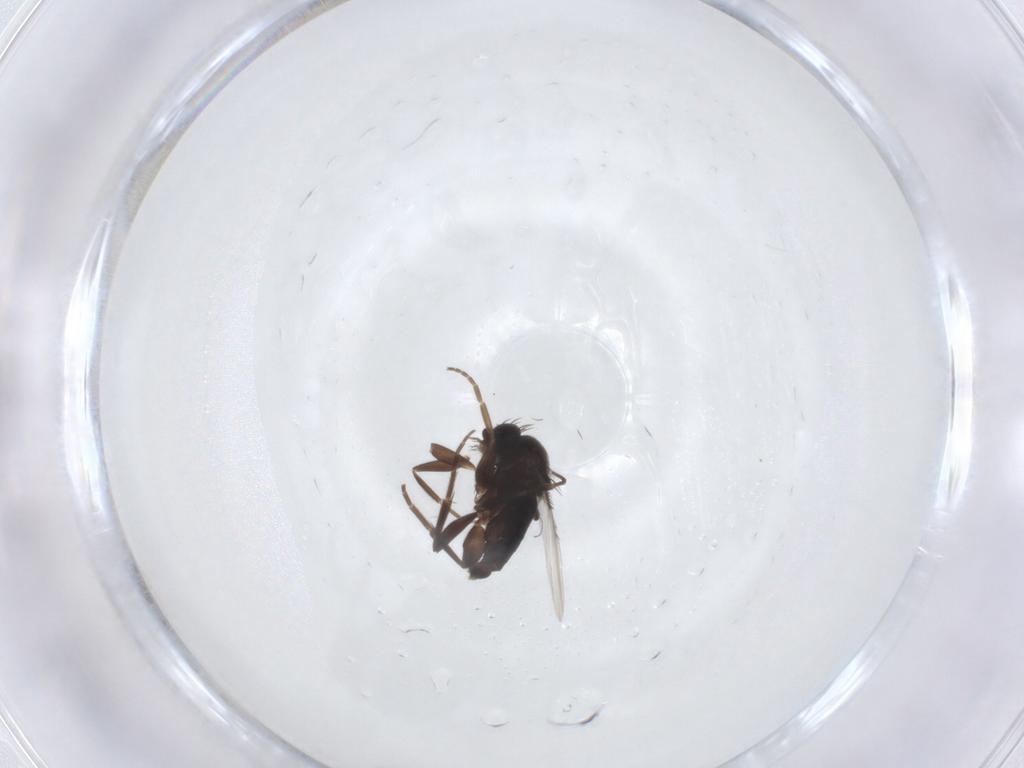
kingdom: Animalia
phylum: Arthropoda
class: Insecta
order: Diptera
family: Phoridae
